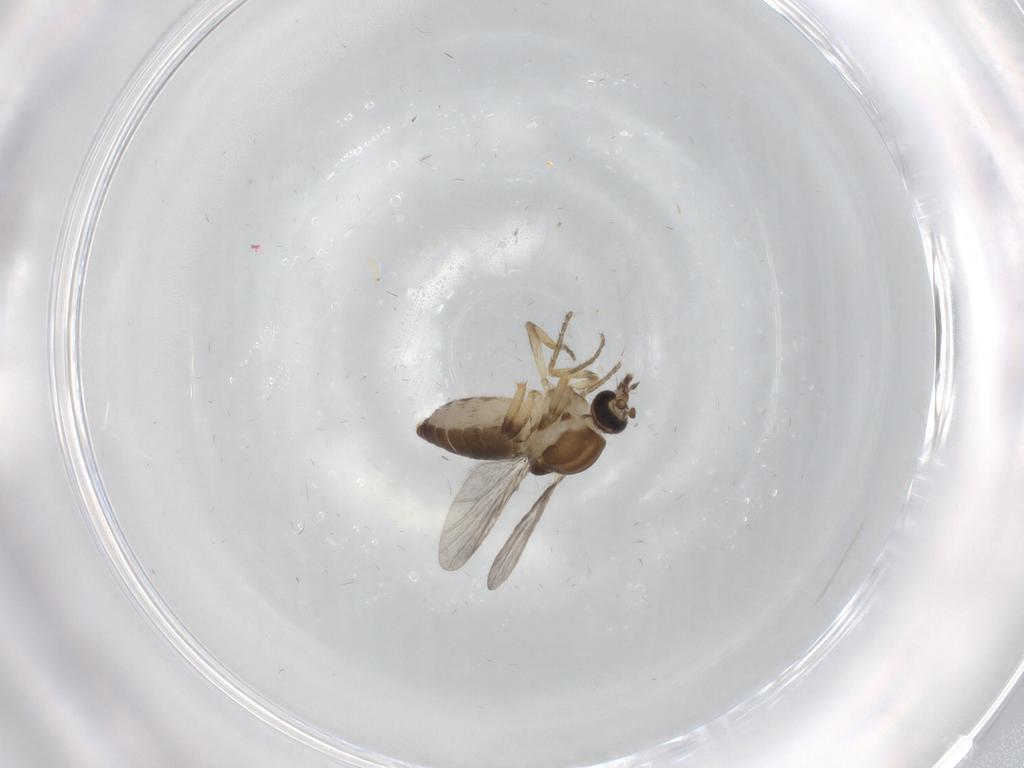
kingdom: Animalia
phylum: Arthropoda
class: Insecta
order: Diptera
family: Ceratopogonidae
